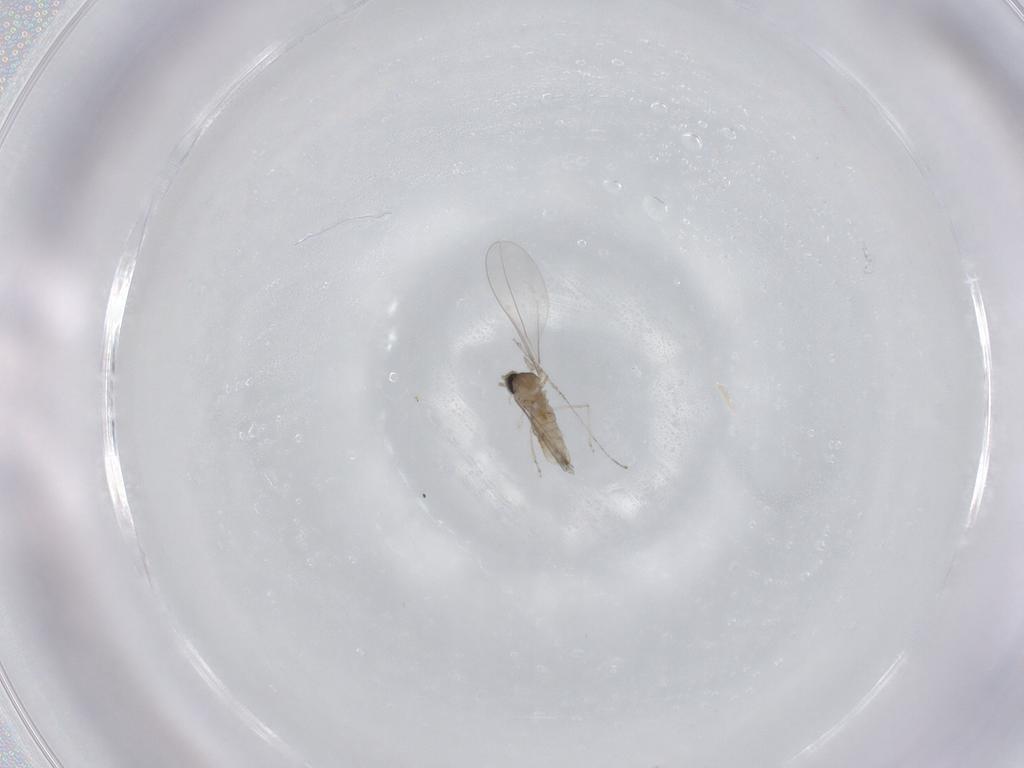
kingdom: Animalia
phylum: Arthropoda
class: Insecta
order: Diptera
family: Cecidomyiidae
